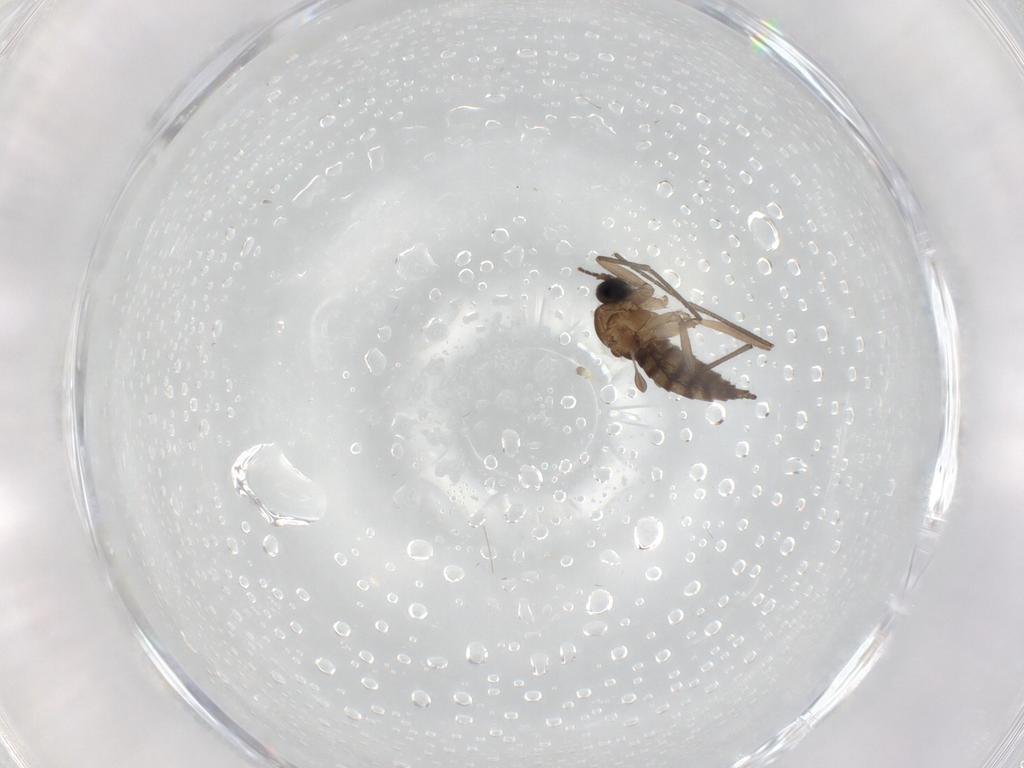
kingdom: Animalia
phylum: Arthropoda
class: Insecta
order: Diptera
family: Sciaridae
